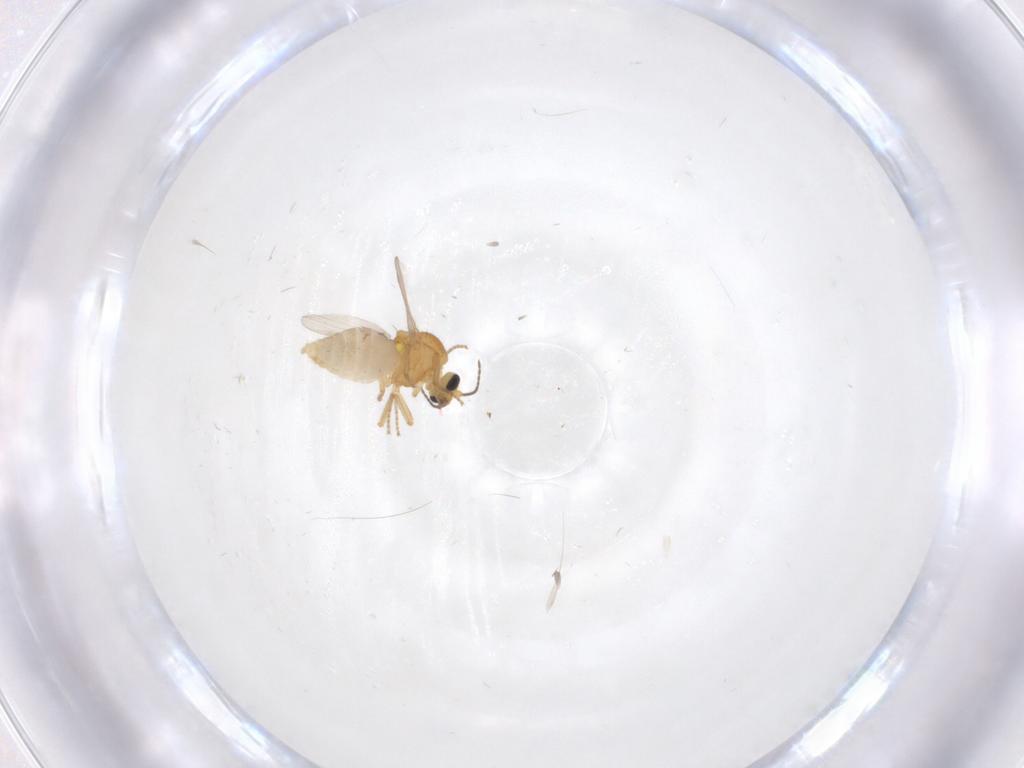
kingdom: Animalia
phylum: Arthropoda
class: Insecta
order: Diptera
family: Ceratopogonidae
